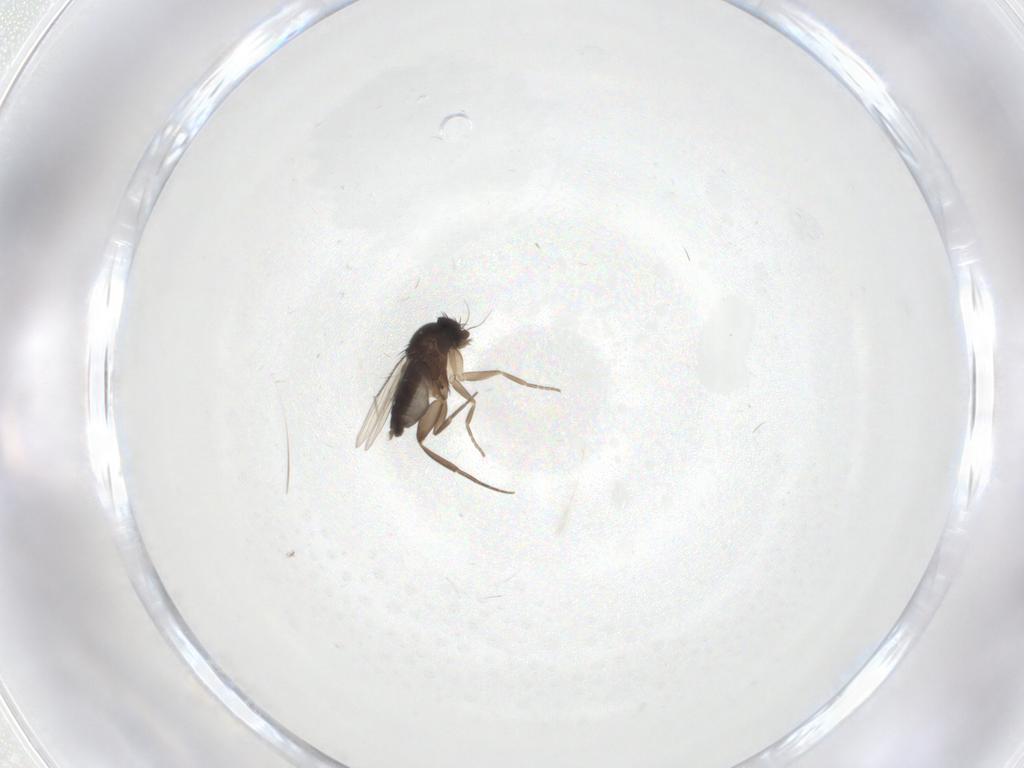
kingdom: Animalia
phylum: Arthropoda
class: Insecta
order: Diptera
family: Phoridae
